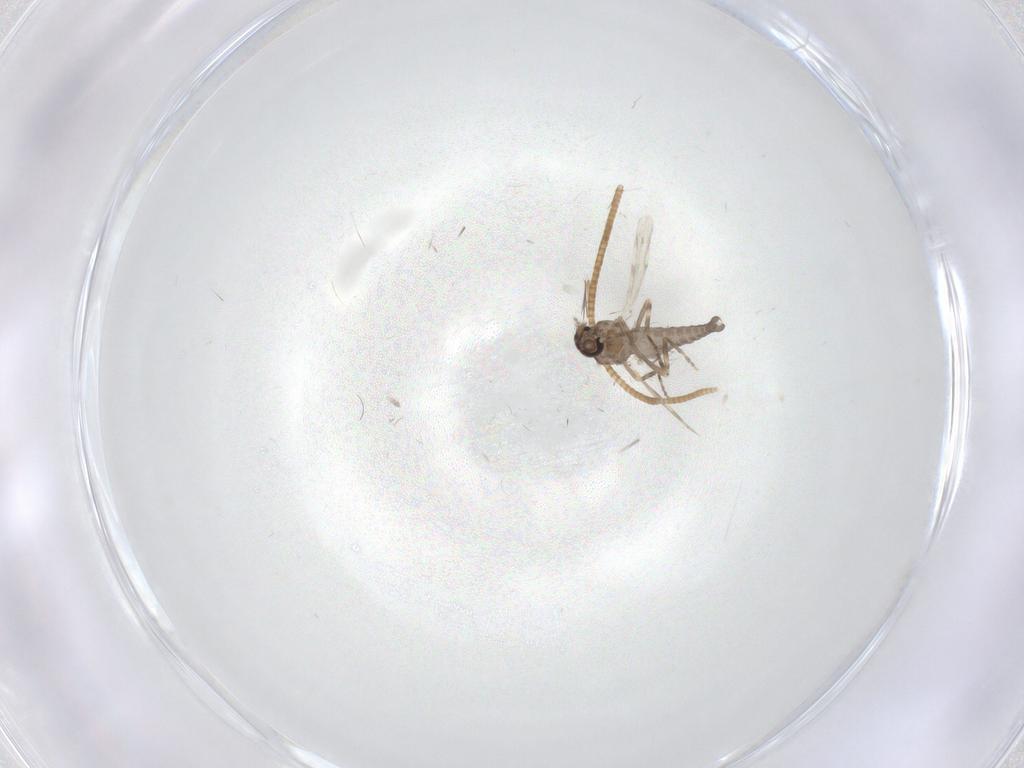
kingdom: Animalia
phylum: Arthropoda
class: Insecta
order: Diptera
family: Ceratopogonidae
